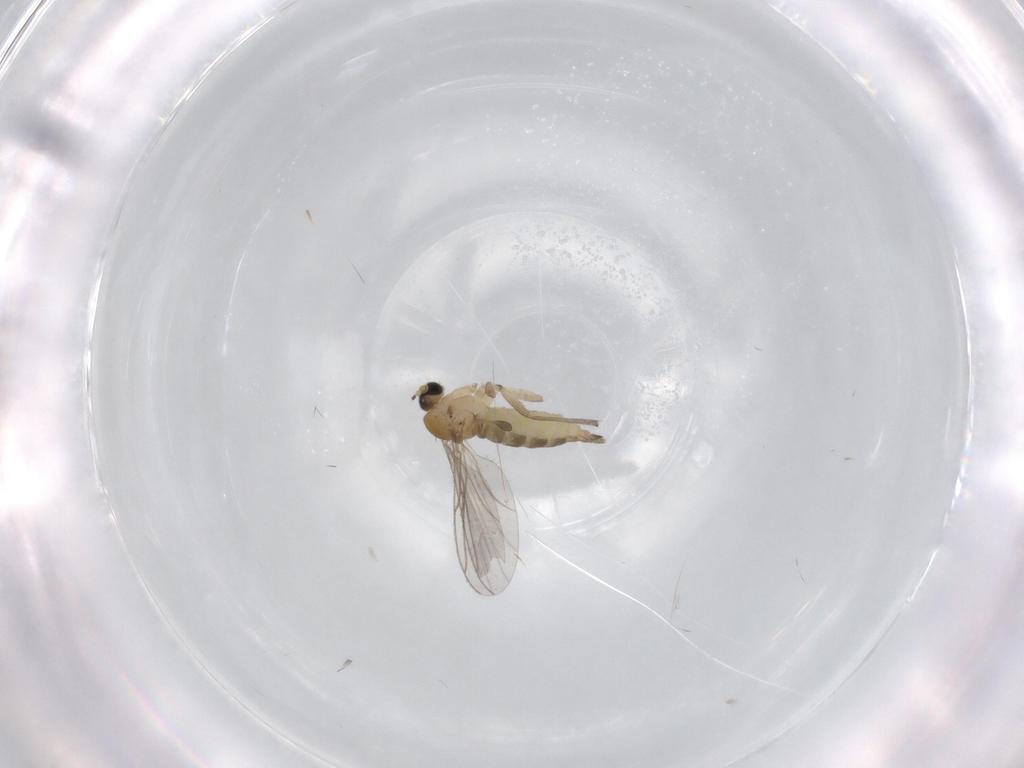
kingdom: Animalia
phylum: Arthropoda
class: Insecta
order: Diptera
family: Sciaridae
